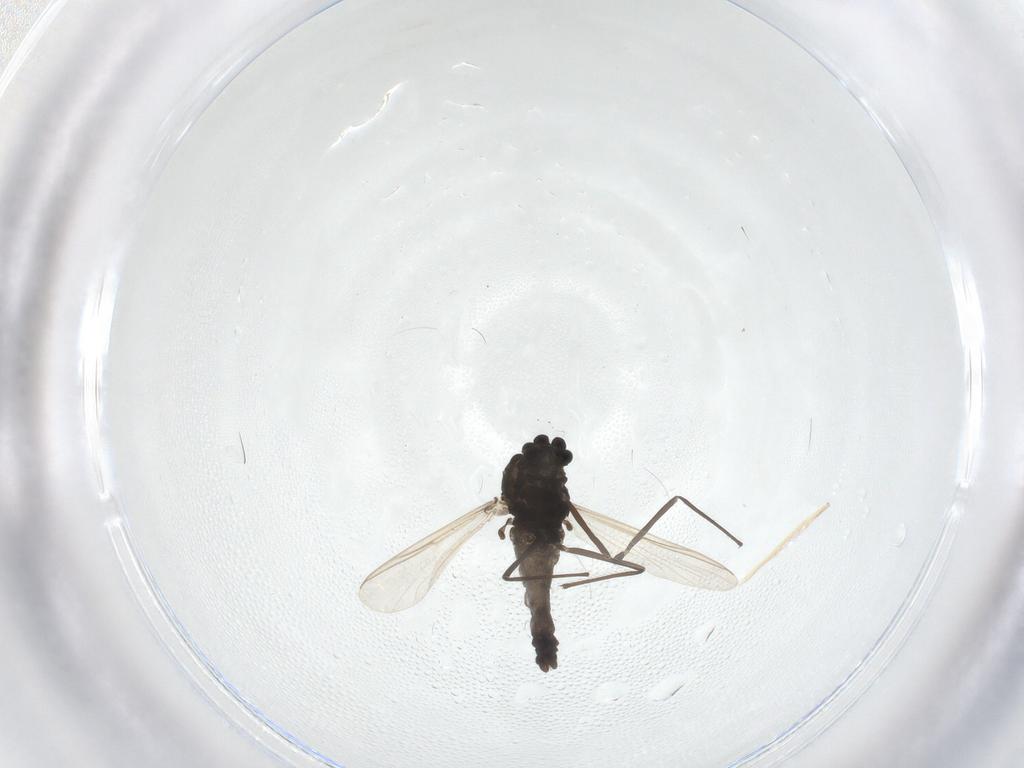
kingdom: Animalia
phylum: Arthropoda
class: Insecta
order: Diptera
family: Chironomidae
